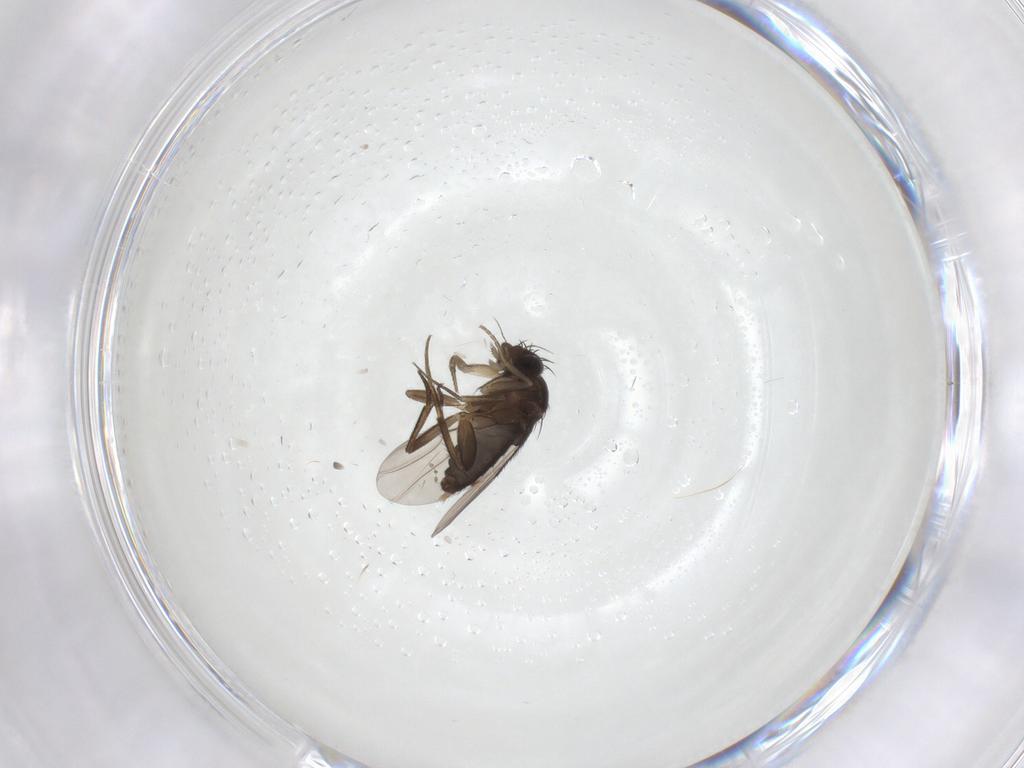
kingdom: Animalia
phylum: Arthropoda
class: Insecta
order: Diptera
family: Phoridae
